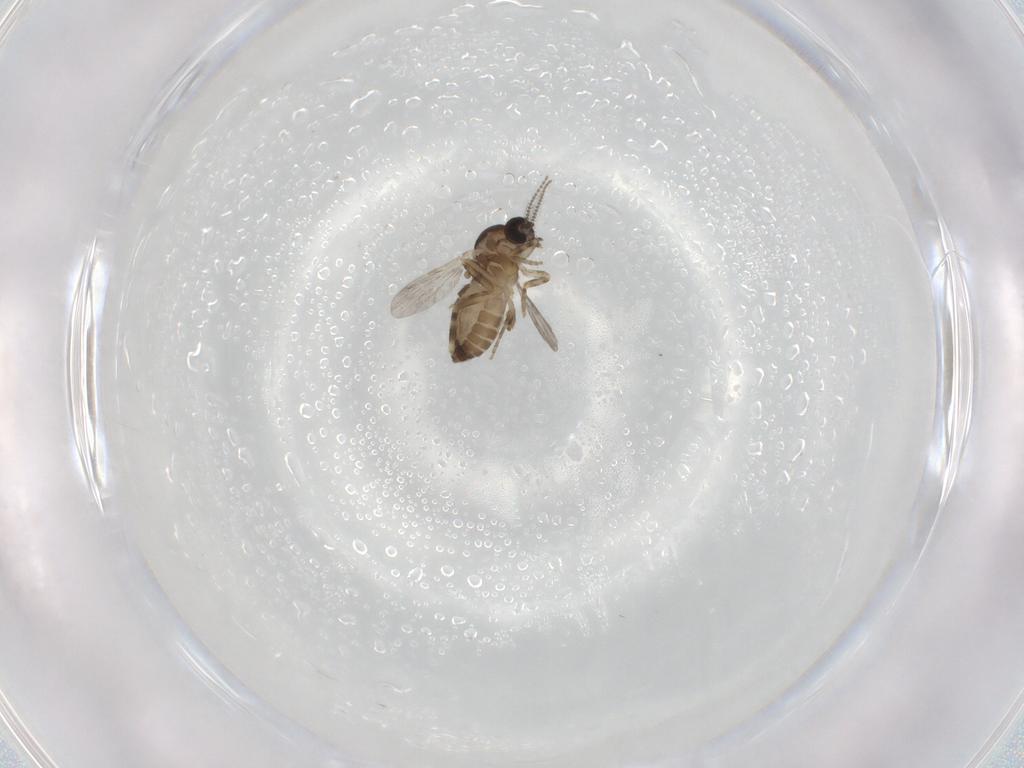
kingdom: Animalia
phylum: Arthropoda
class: Insecta
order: Diptera
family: Ceratopogonidae
